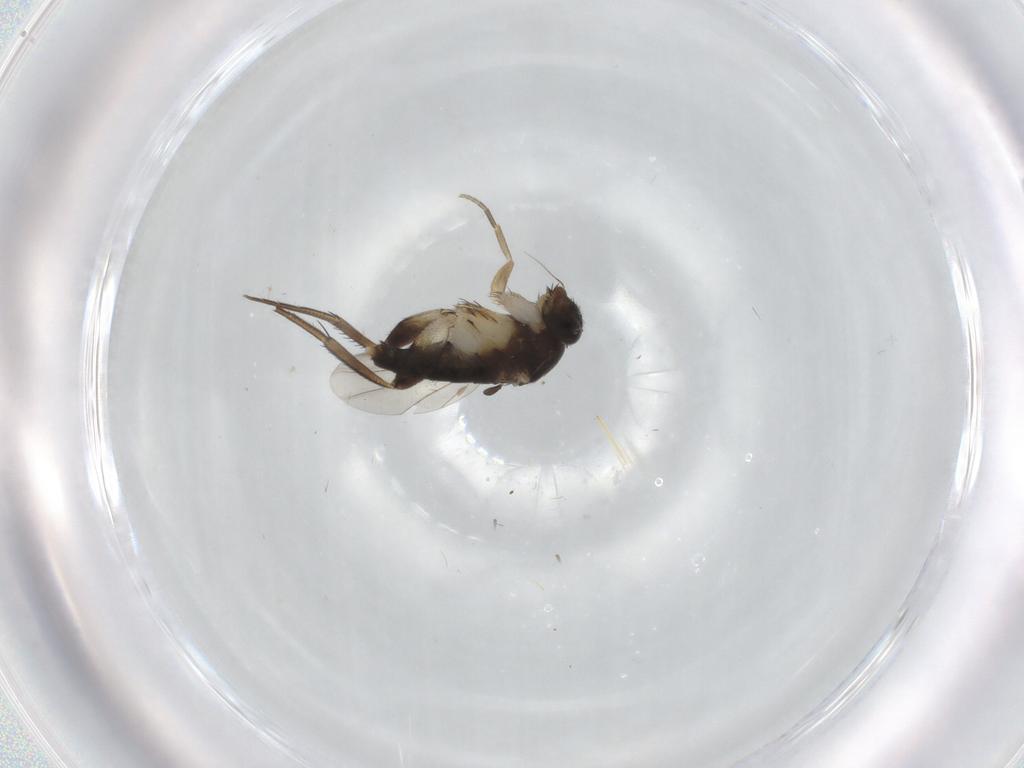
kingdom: Animalia
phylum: Arthropoda
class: Insecta
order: Diptera
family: Phoridae
